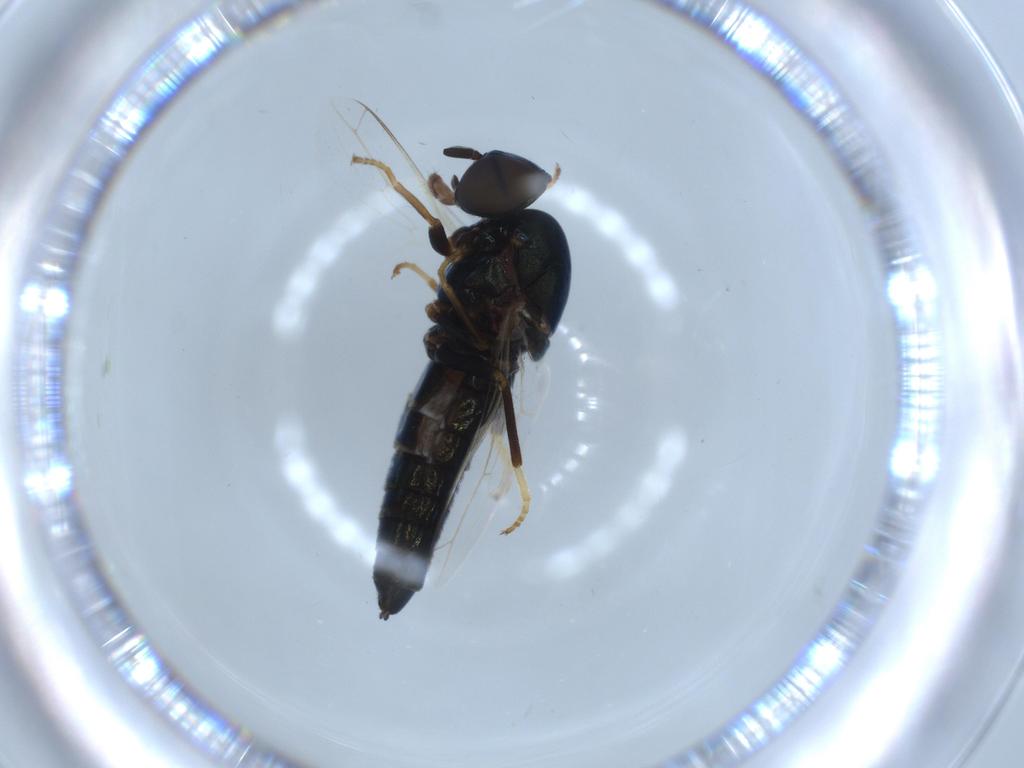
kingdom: Animalia
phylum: Arthropoda
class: Insecta
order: Diptera
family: Scenopinidae
